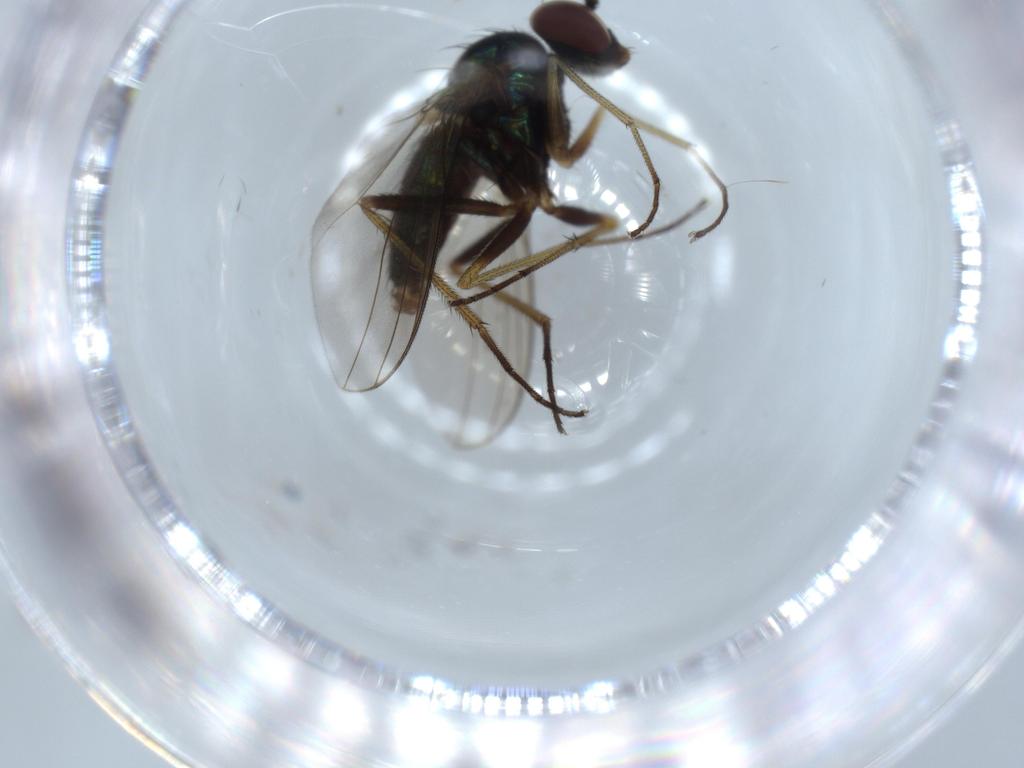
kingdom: Animalia
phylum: Arthropoda
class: Insecta
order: Diptera
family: Dolichopodidae
